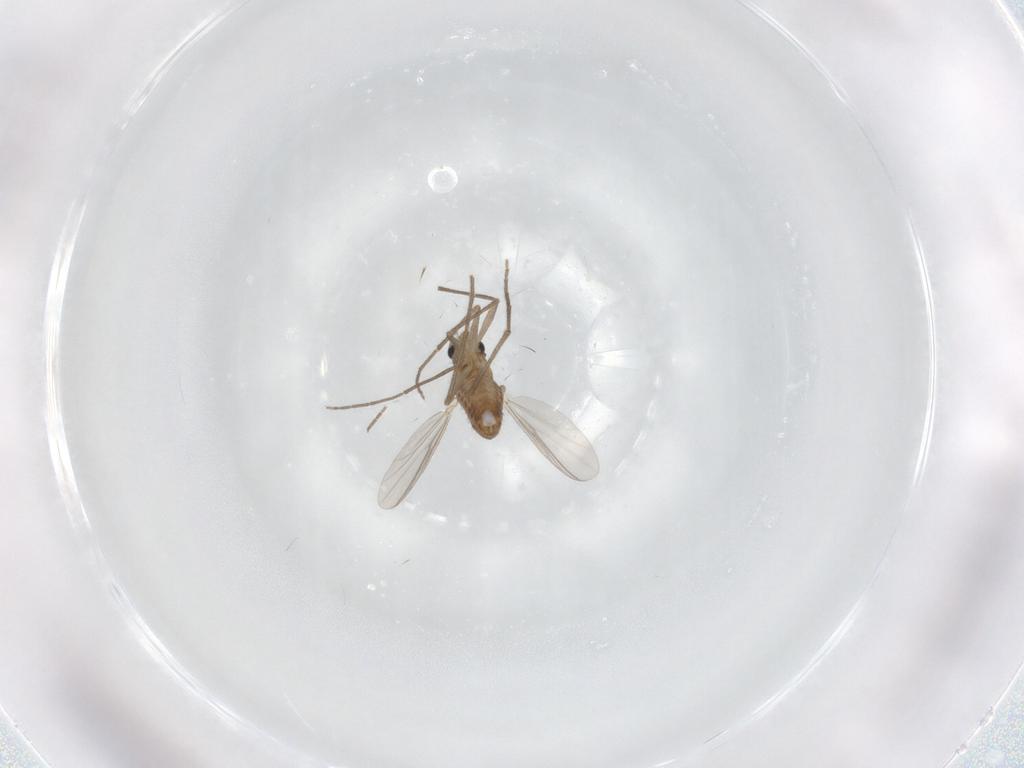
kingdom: Animalia
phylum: Arthropoda
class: Insecta
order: Diptera
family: Chironomidae
